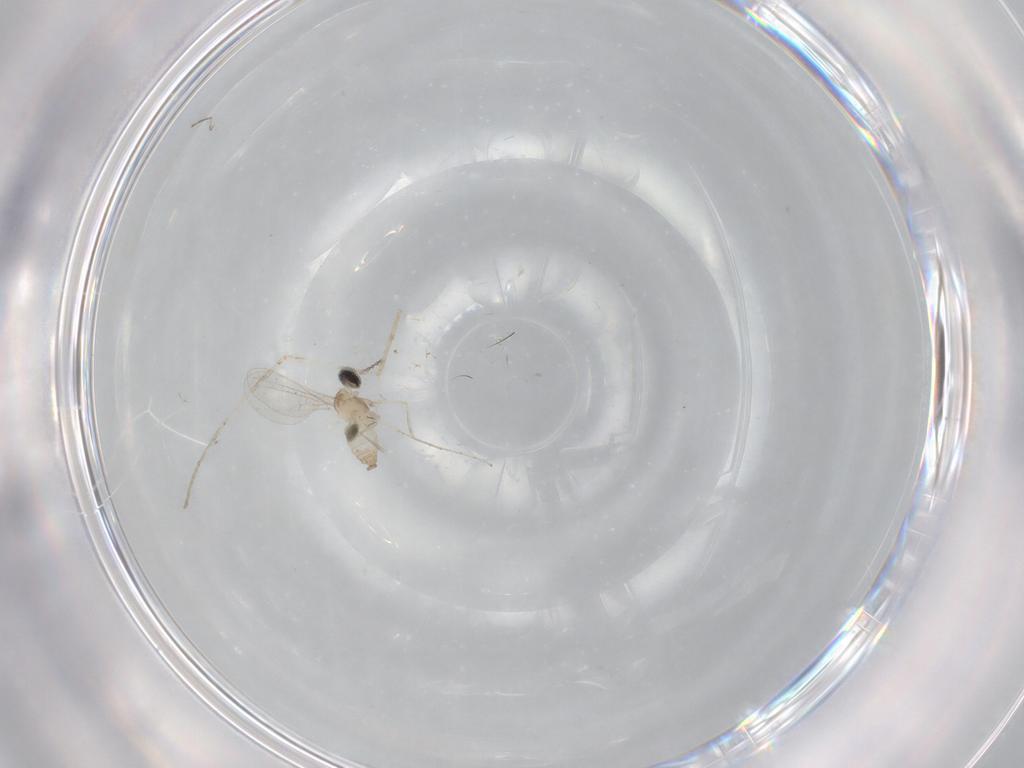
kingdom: Animalia
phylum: Arthropoda
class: Insecta
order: Diptera
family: Cecidomyiidae
